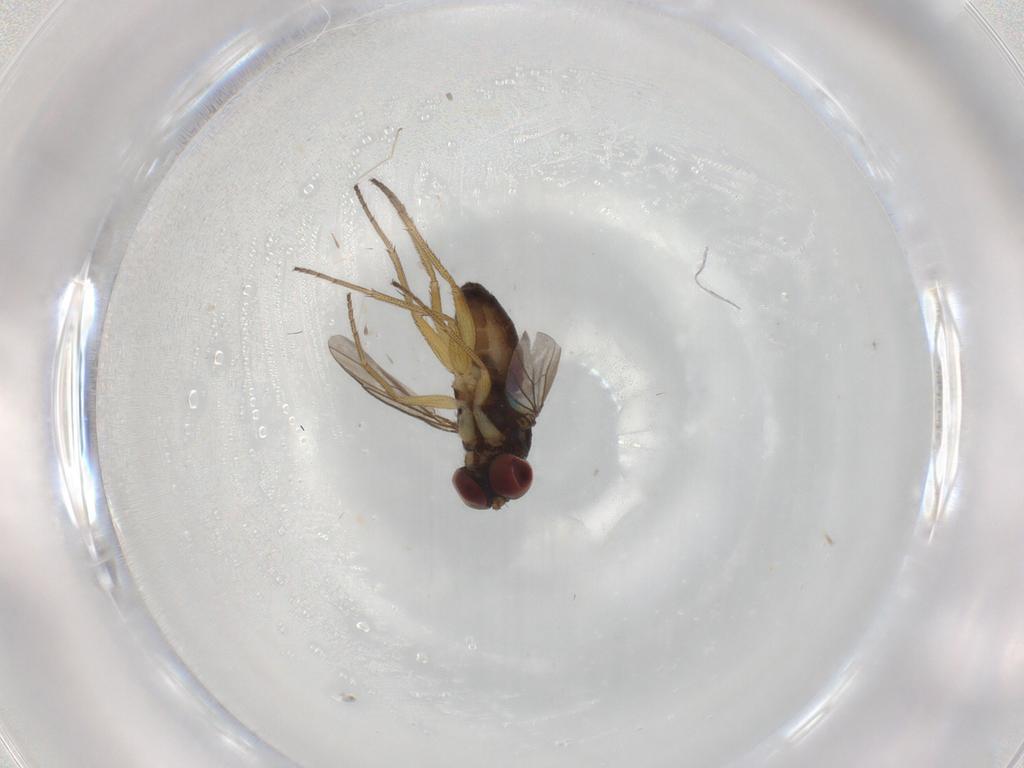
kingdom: Animalia
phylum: Arthropoda
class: Insecta
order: Diptera
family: Dolichopodidae
